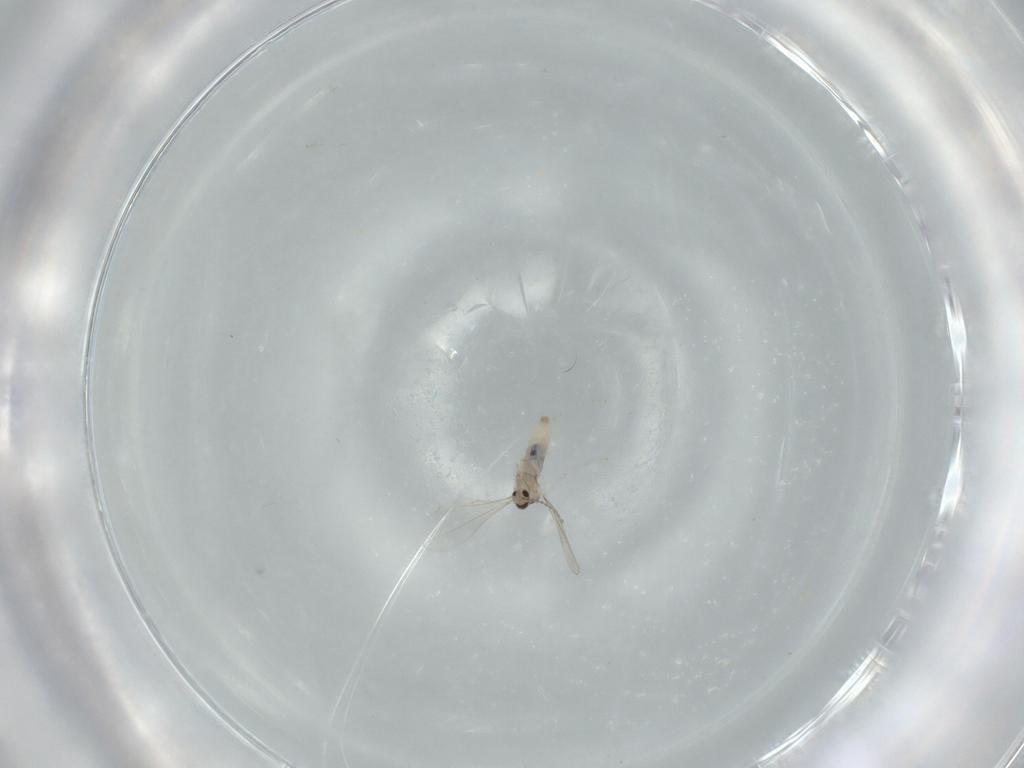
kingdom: Animalia
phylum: Arthropoda
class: Insecta
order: Diptera
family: Cecidomyiidae
